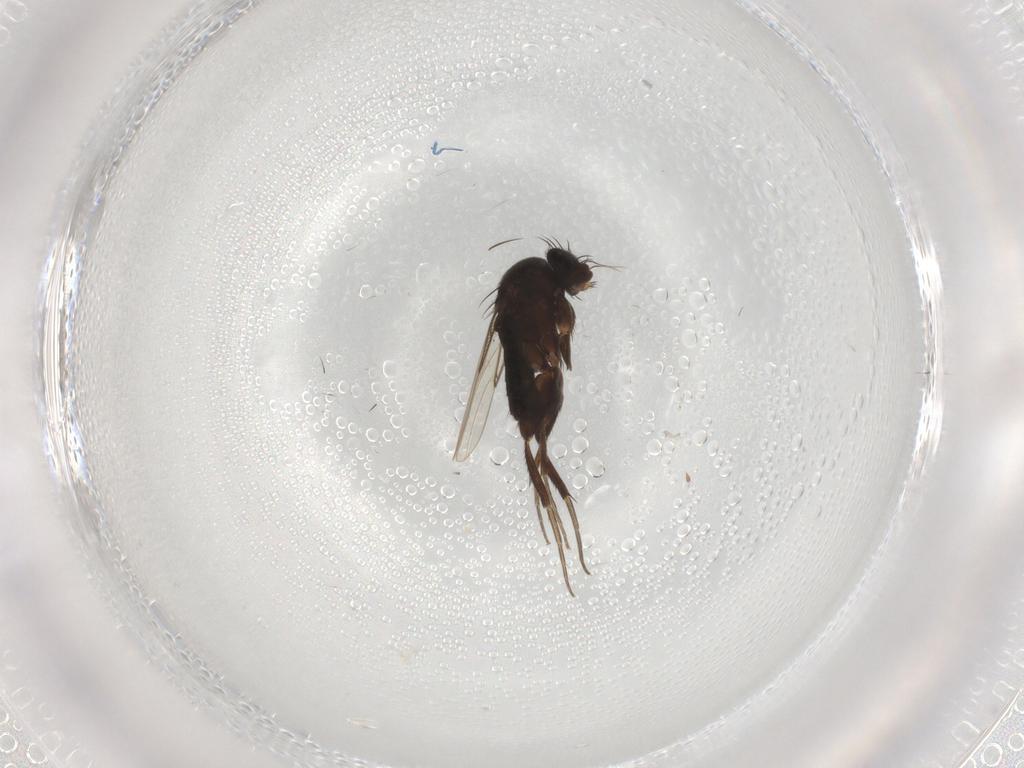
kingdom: Animalia
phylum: Arthropoda
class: Insecta
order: Diptera
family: Phoridae
